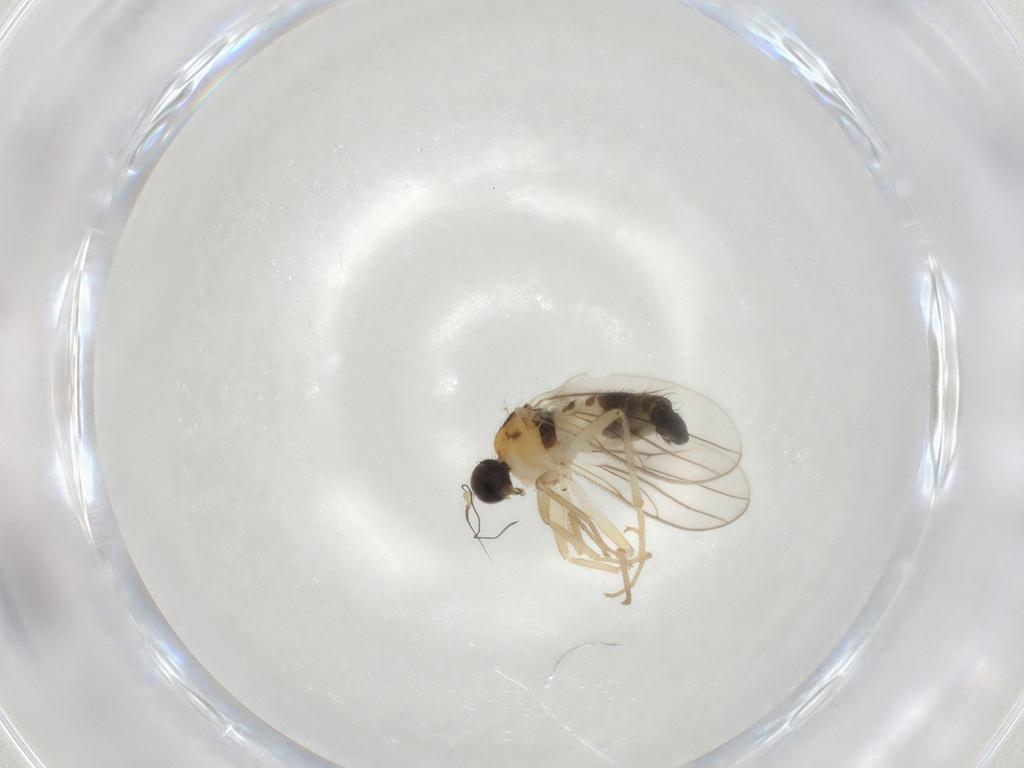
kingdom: Animalia
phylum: Arthropoda
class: Insecta
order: Diptera
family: Hybotidae
